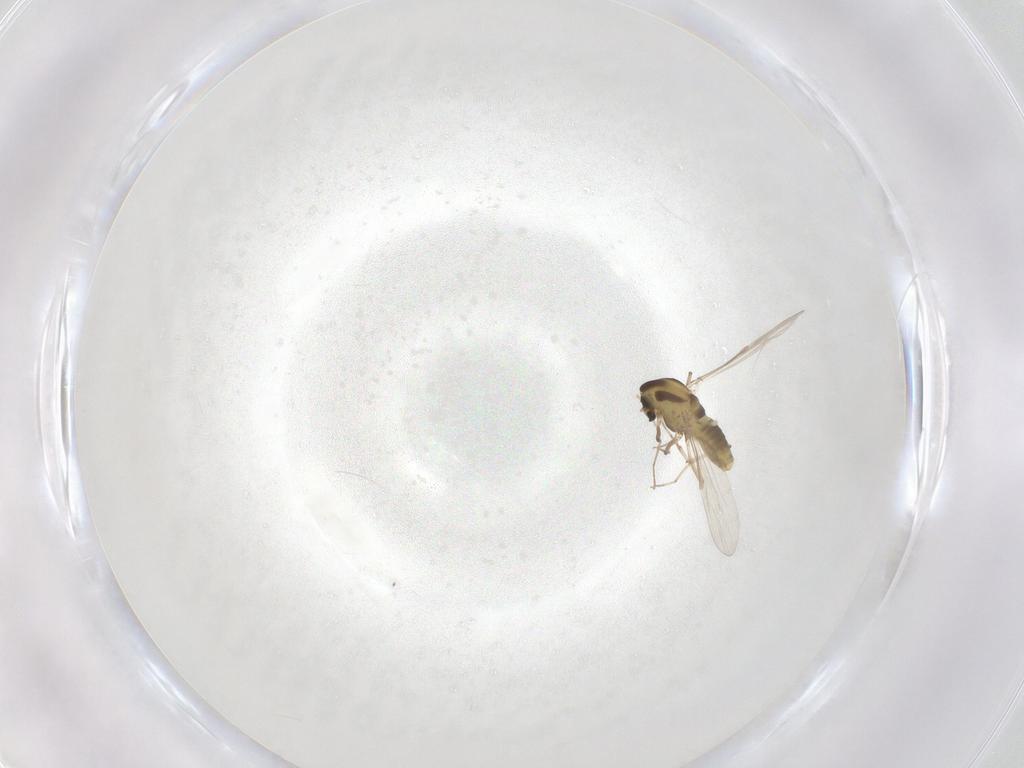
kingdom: Animalia
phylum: Arthropoda
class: Insecta
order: Diptera
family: Chironomidae
